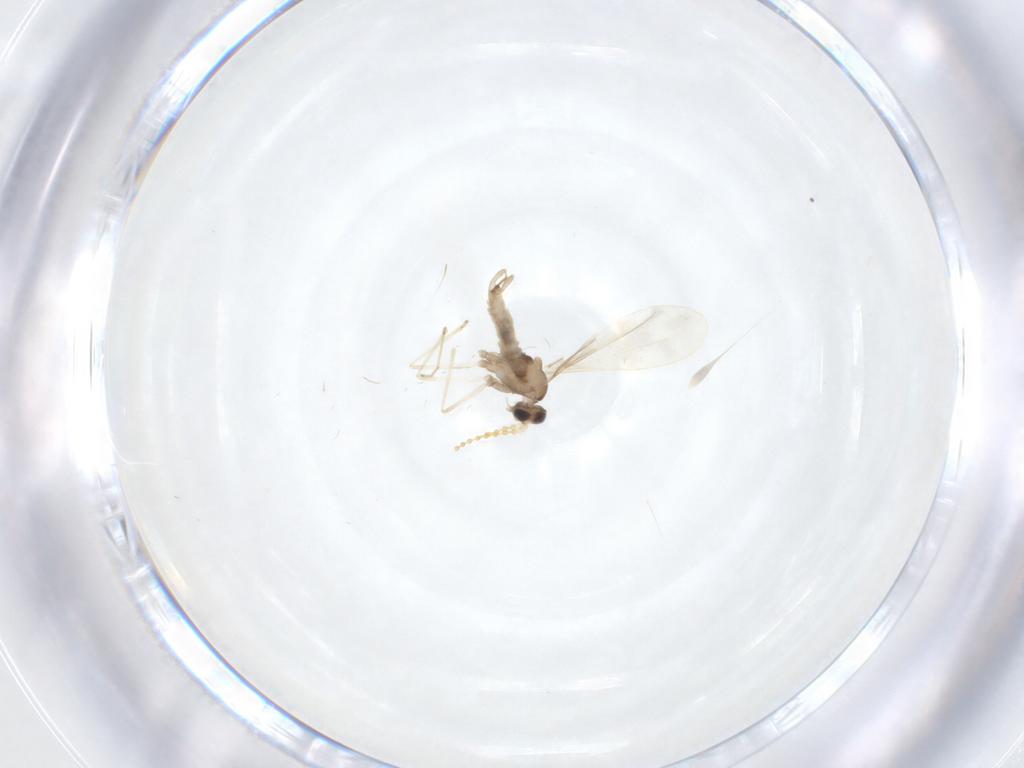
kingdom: Animalia
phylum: Arthropoda
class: Insecta
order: Diptera
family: Cecidomyiidae
